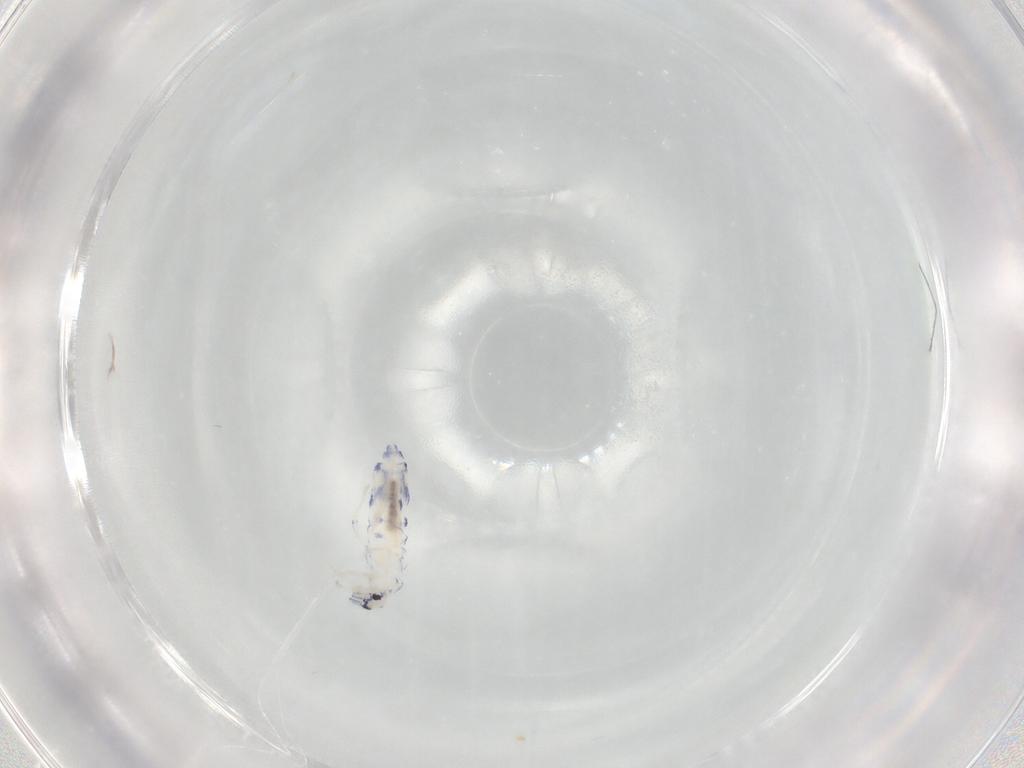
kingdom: Animalia
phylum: Arthropoda
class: Collembola
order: Entomobryomorpha
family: Entomobryidae
